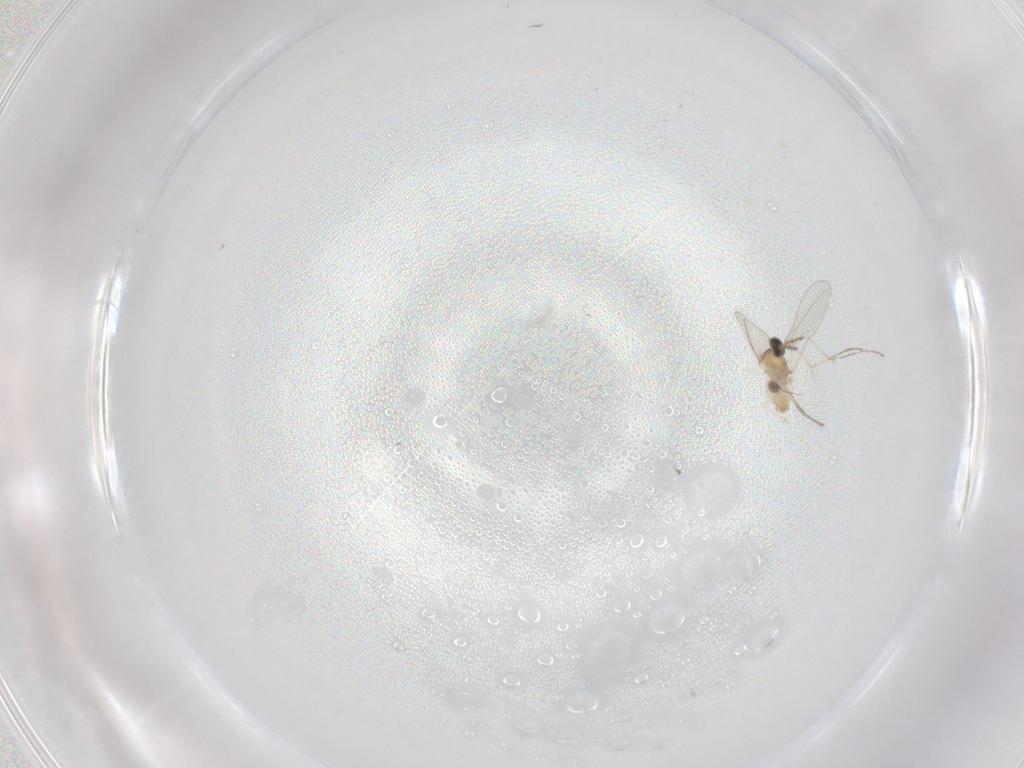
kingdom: Animalia
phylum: Arthropoda
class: Insecta
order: Diptera
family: Cecidomyiidae
